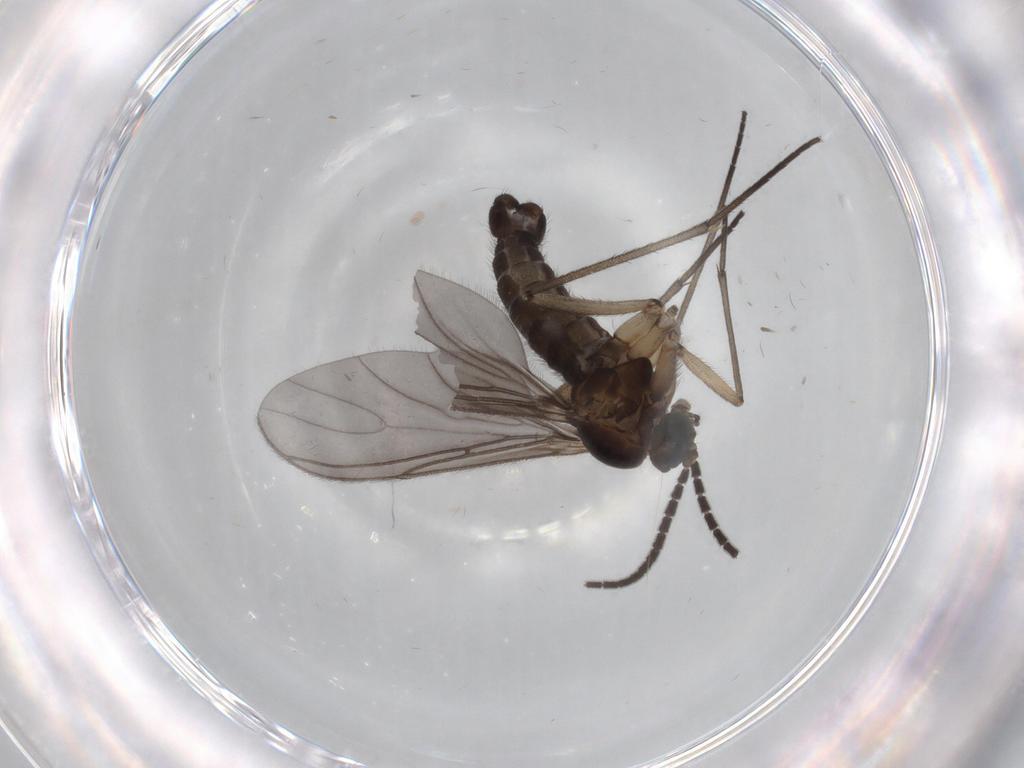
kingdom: Animalia
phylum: Arthropoda
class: Insecta
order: Diptera
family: Sciaridae
